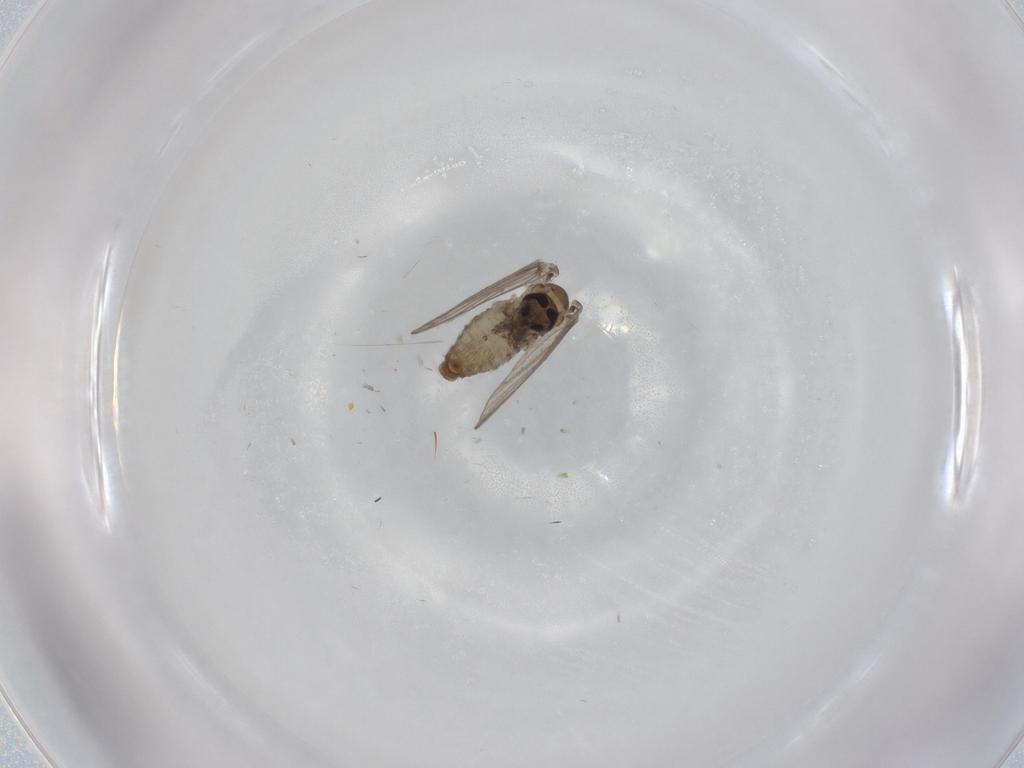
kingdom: Animalia
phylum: Arthropoda
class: Insecta
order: Diptera
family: Psychodidae
